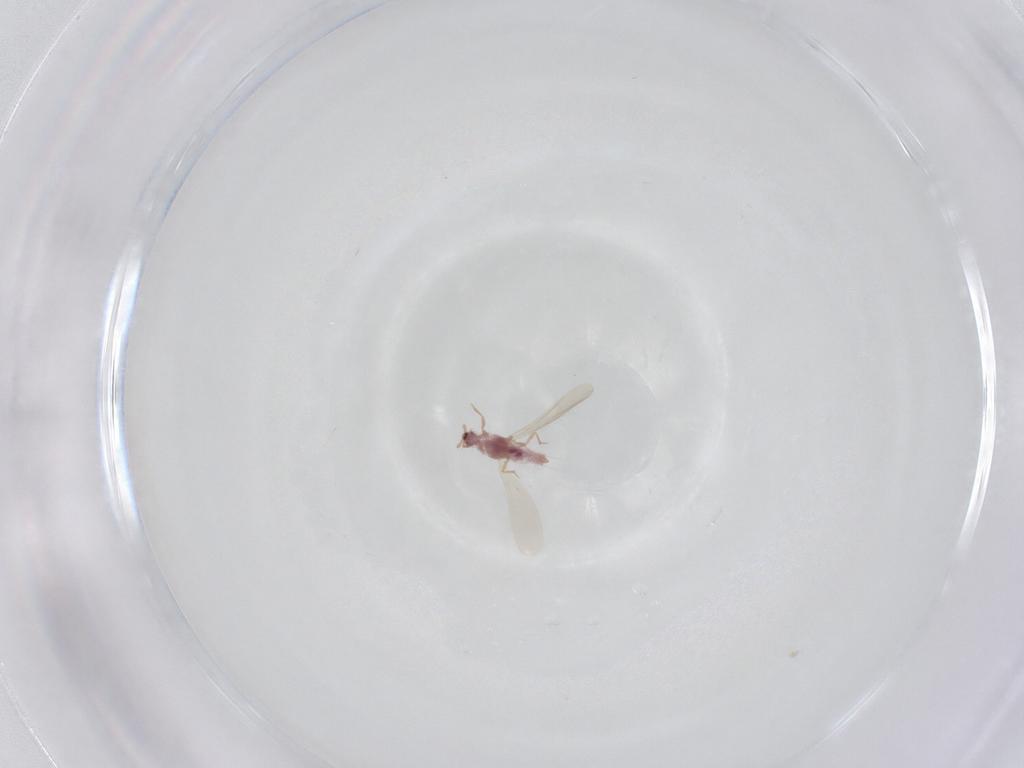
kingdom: Animalia
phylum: Arthropoda
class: Insecta
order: Hemiptera
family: Pseudococcidae
